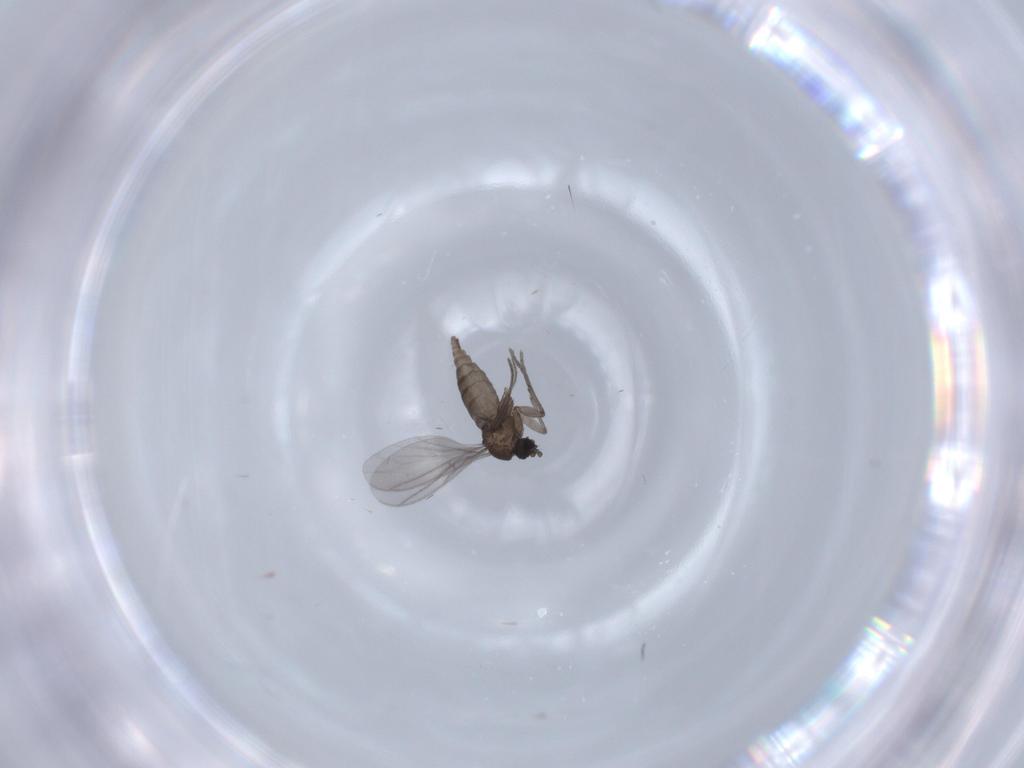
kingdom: Animalia
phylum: Arthropoda
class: Insecta
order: Diptera
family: Sciaridae
